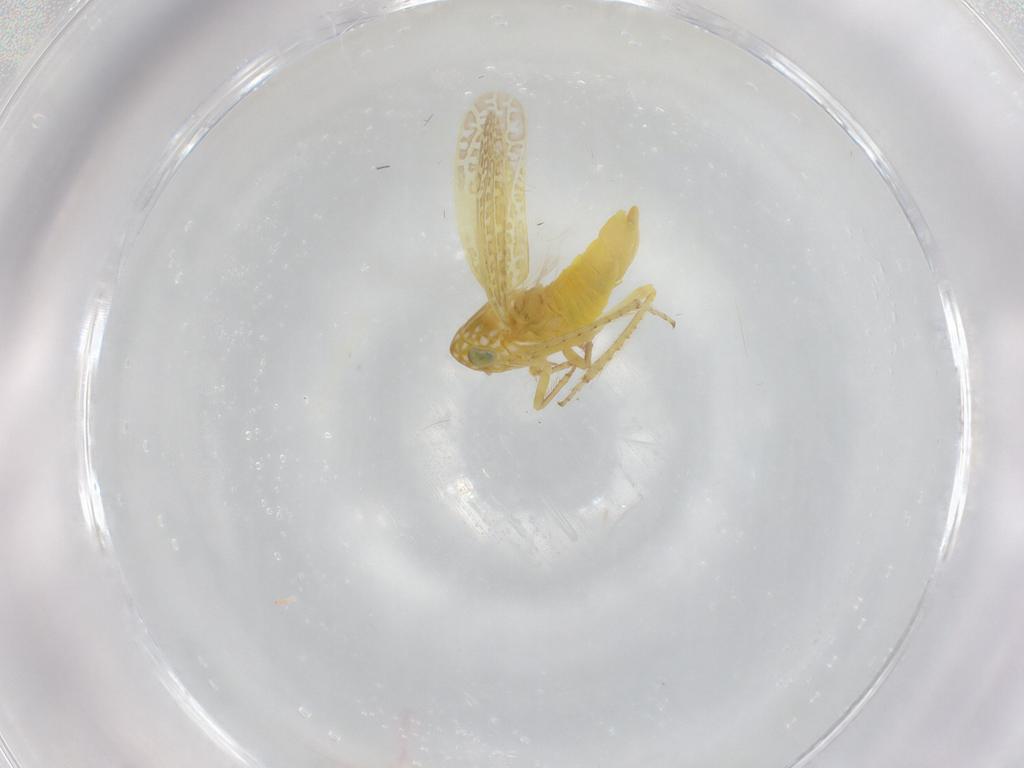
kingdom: Animalia
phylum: Arthropoda
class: Insecta
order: Hemiptera
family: Cicadellidae
